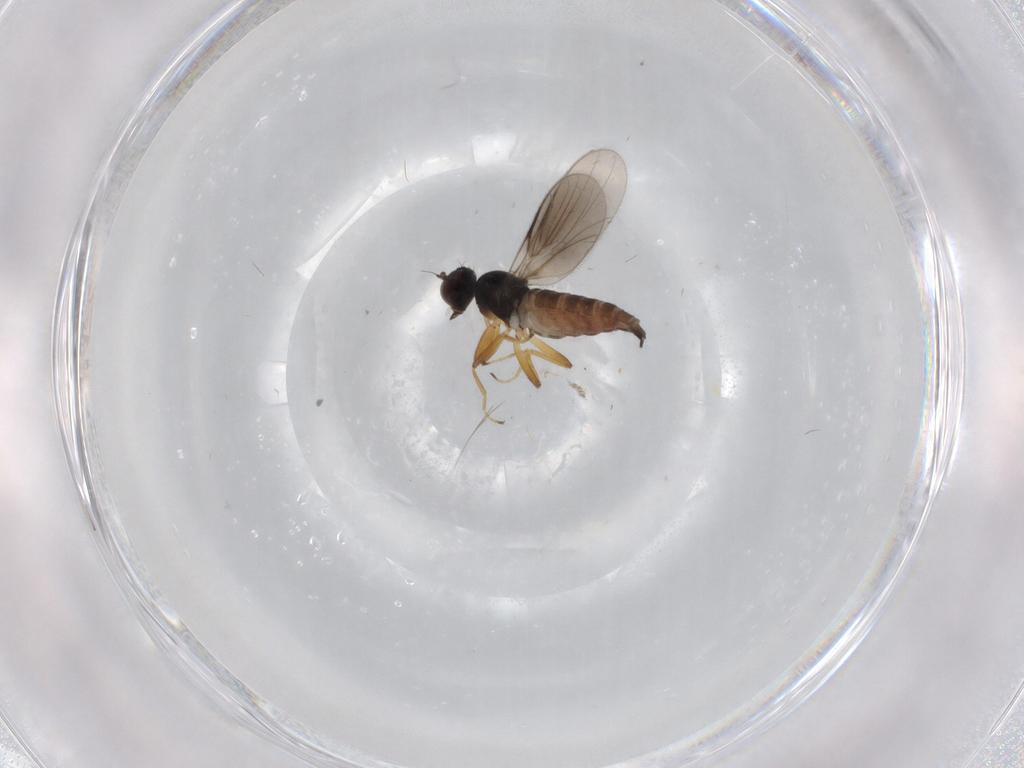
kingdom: Animalia
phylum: Arthropoda
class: Insecta
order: Diptera
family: Hybotidae
